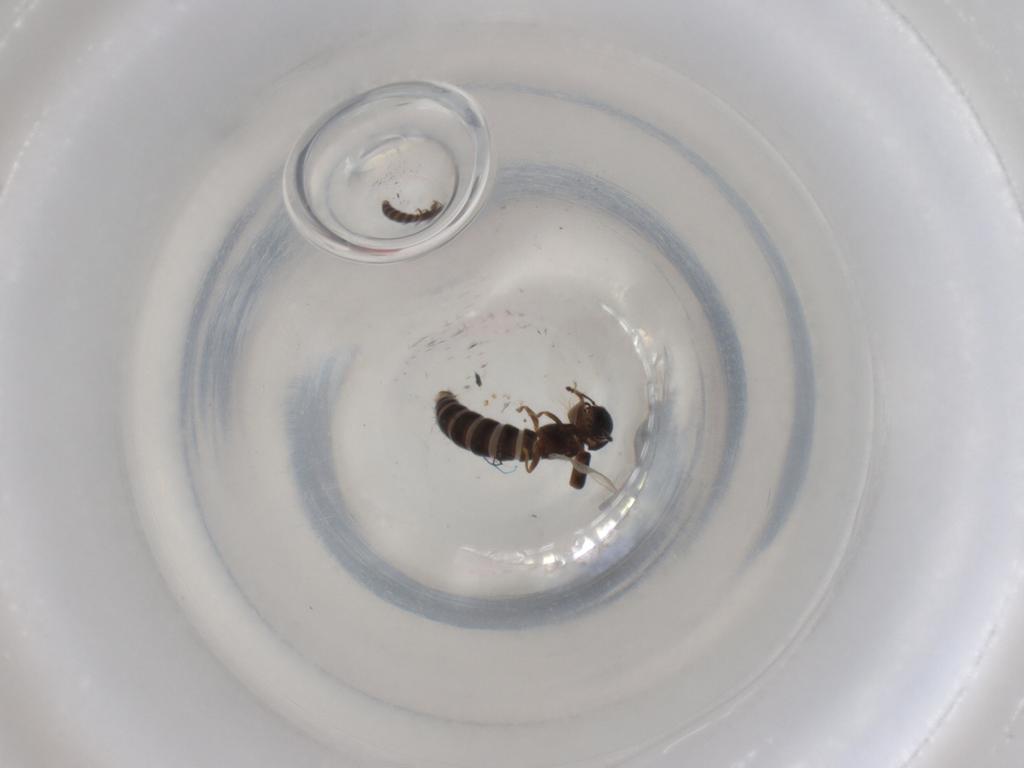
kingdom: Animalia
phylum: Arthropoda
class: Insecta
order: Coleoptera
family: Staphylinidae
